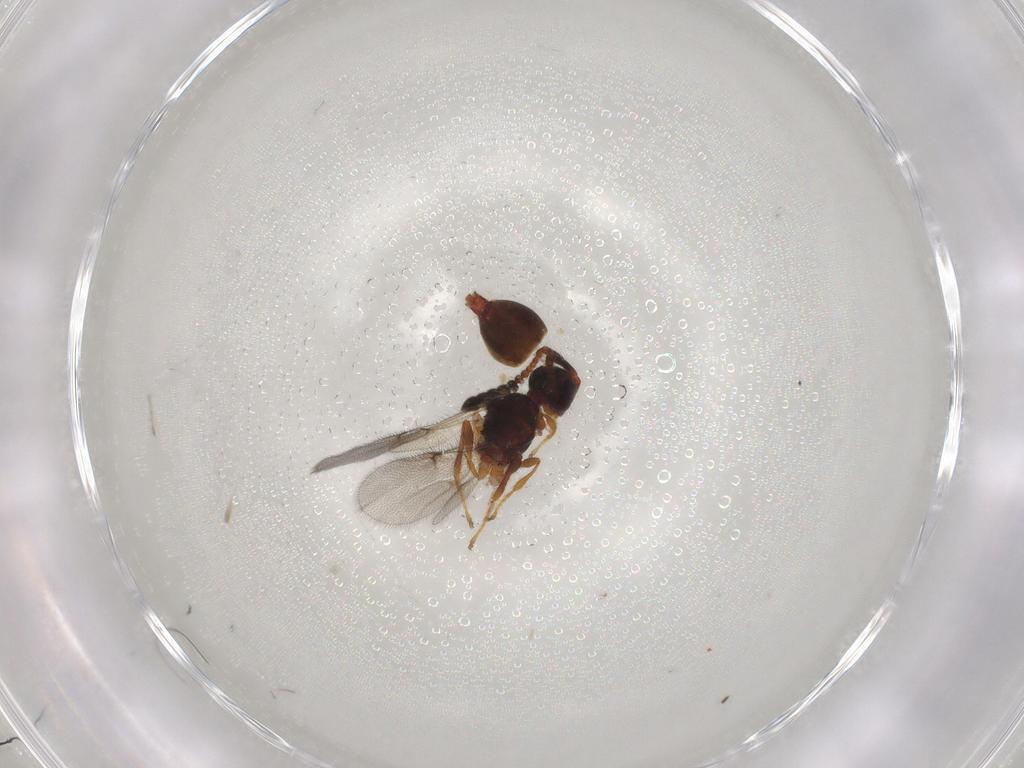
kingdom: Animalia
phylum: Arthropoda
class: Insecta
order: Hymenoptera
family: Diapriidae
